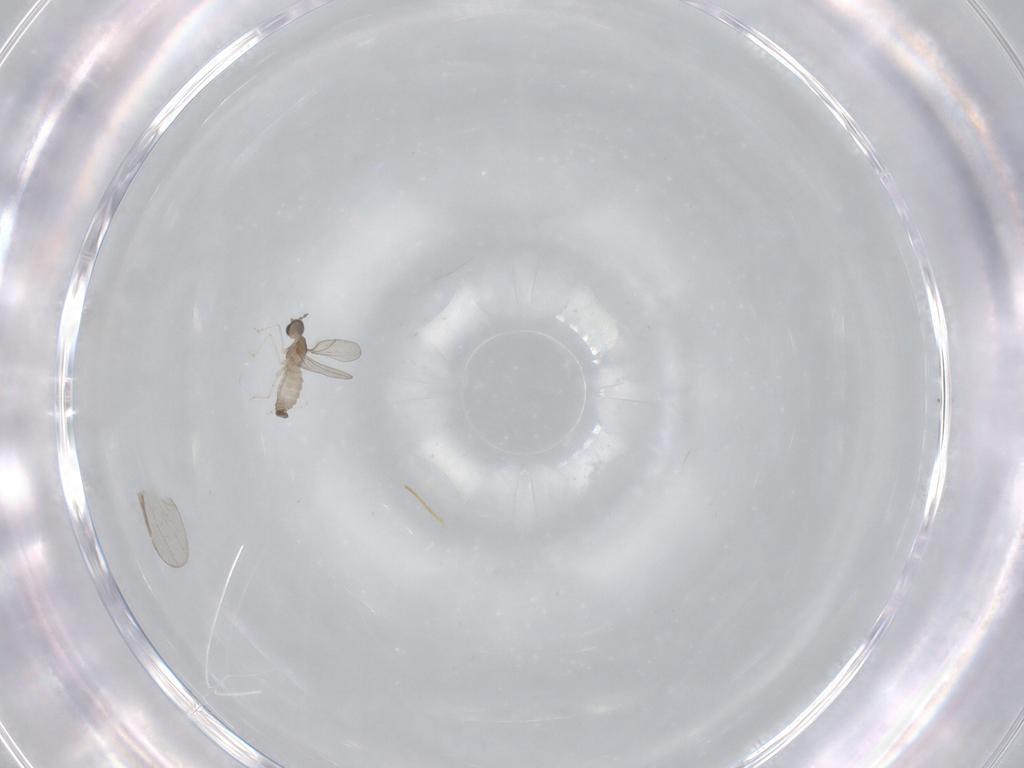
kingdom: Animalia
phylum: Arthropoda
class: Insecta
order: Diptera
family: Cecidomyiidae
